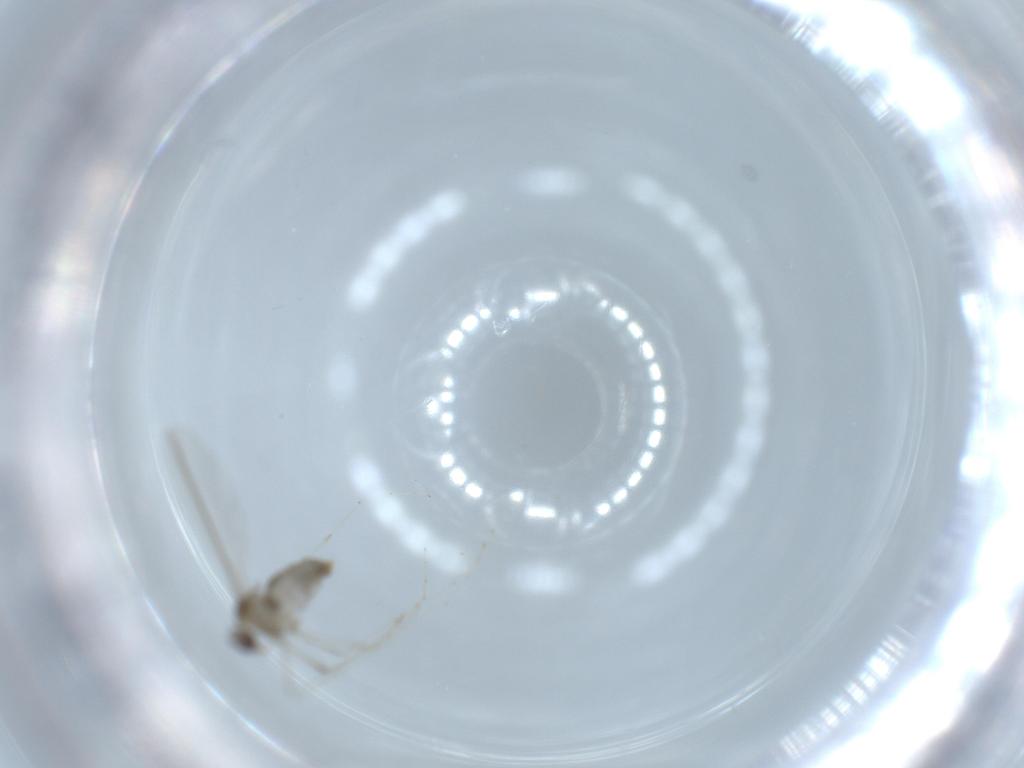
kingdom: Animalia
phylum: Arthropoda
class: Insecta
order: Diptera
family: Cecidomyiidae
